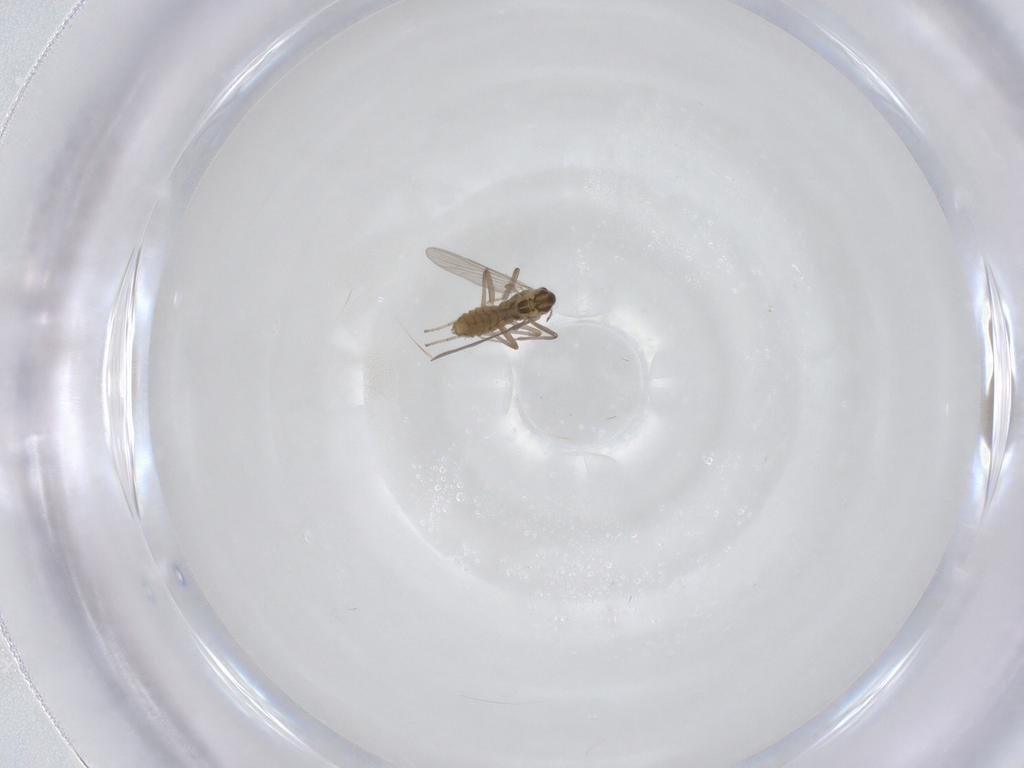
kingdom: Animalia
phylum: Arthropoda
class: Insecta
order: Diptera
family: Chironomidae
